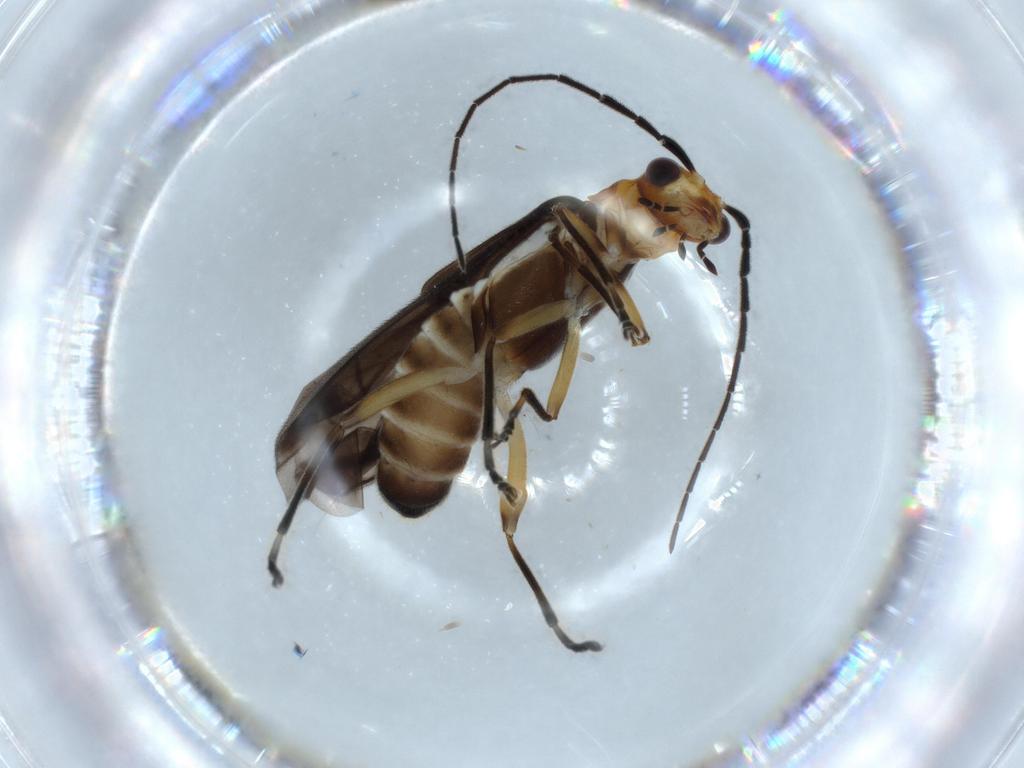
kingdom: Animalia
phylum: Arthropoda
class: Insecta
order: Coleoptera
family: Cantharidae
